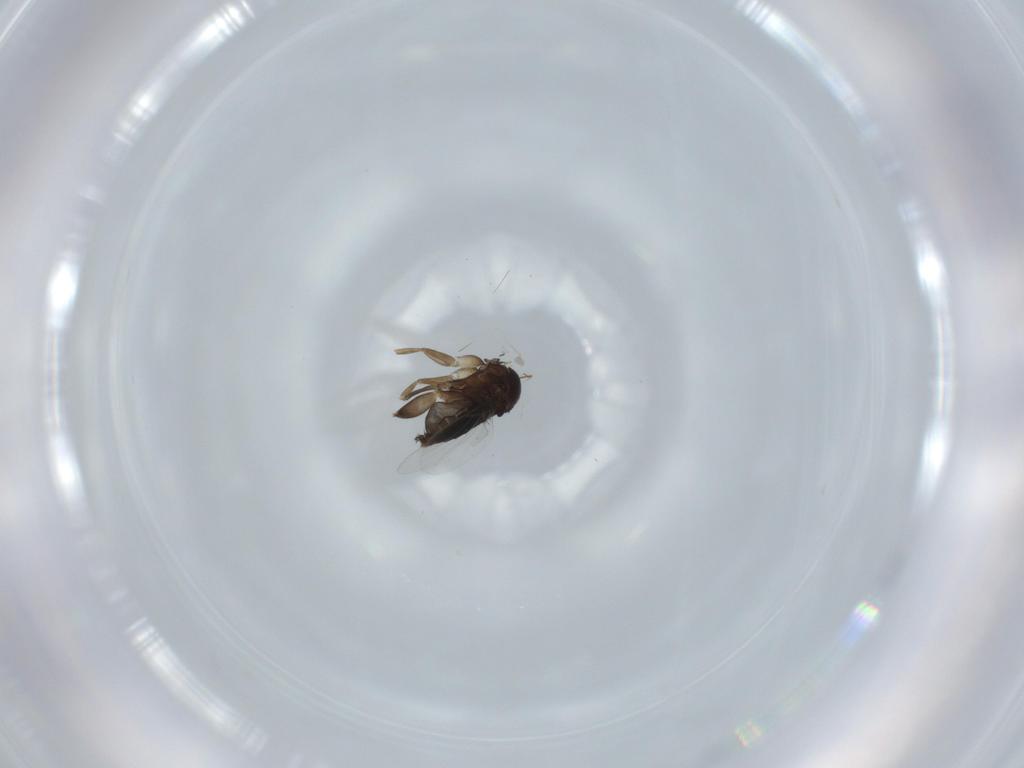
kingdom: Animalia
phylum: Arthropoda
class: Insecta
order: Diptera
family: Phoridae
